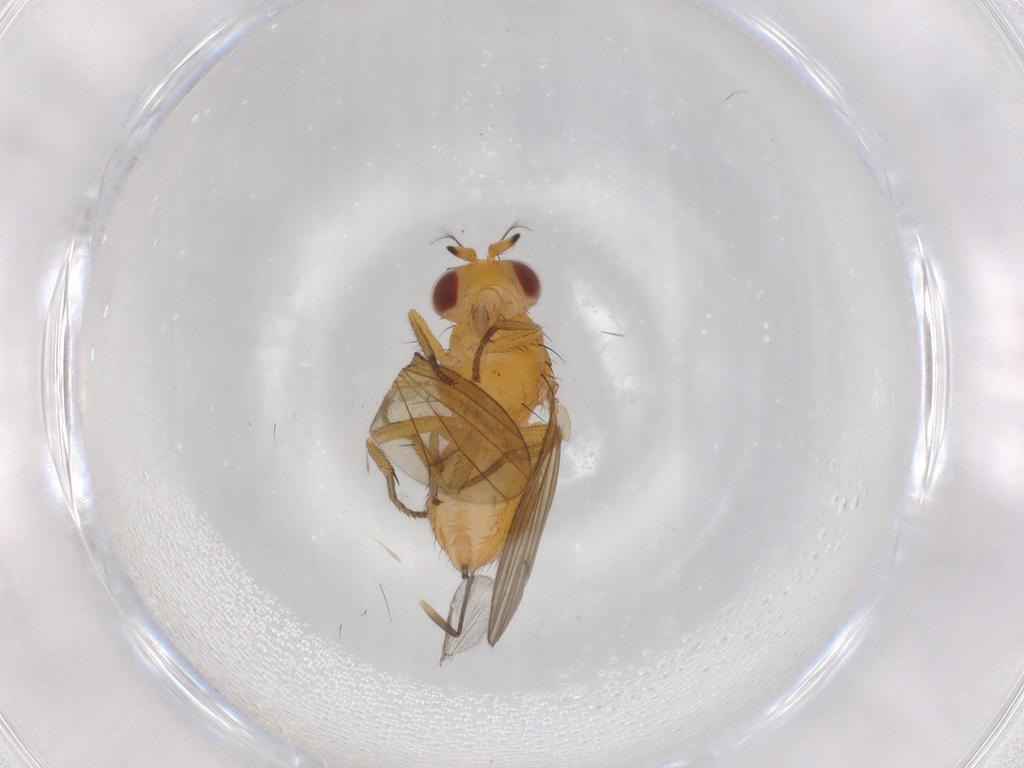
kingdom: Animalia
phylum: Arthropoda
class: Insecta
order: Diptera
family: Lauxaniidae
